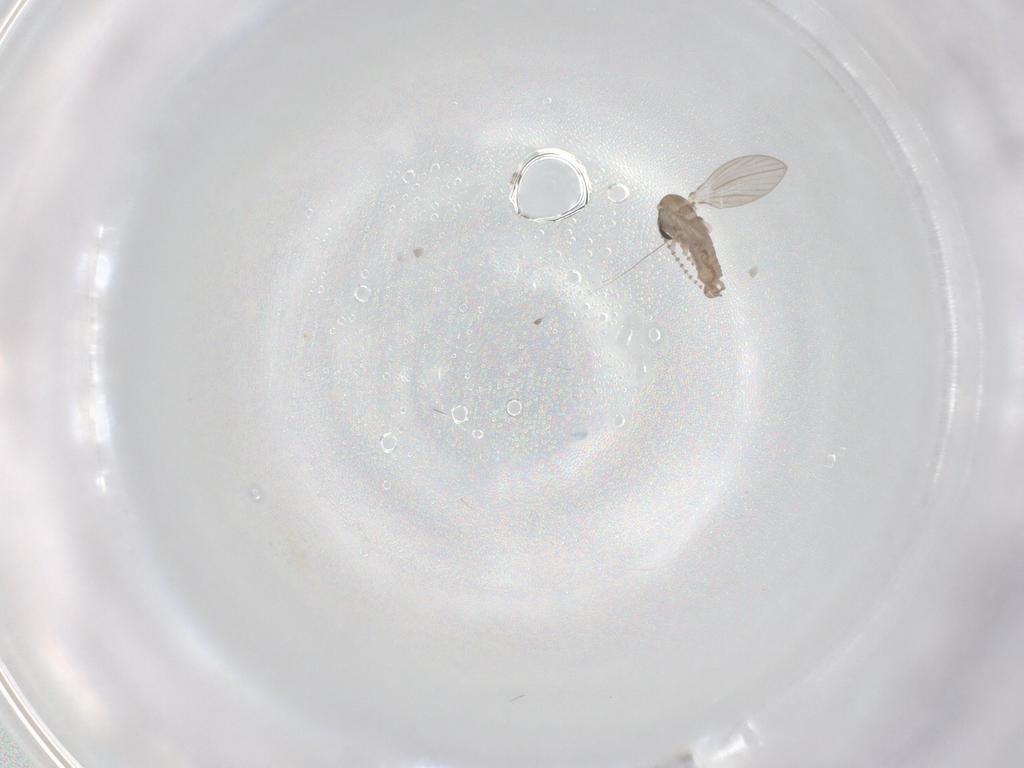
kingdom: Animalia
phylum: Arthropoda
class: Insecta
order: Diptera
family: Psychodidae
